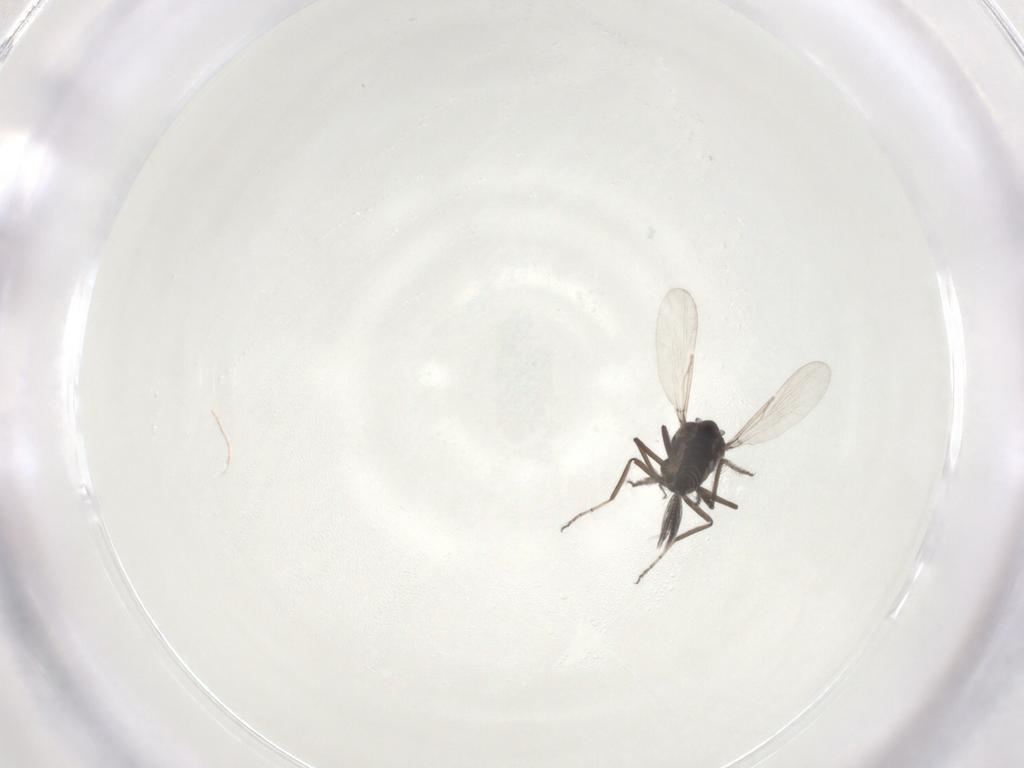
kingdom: Animalia
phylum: Arthropoda
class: Insecta
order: Diptera
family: Ceratopogonidae
